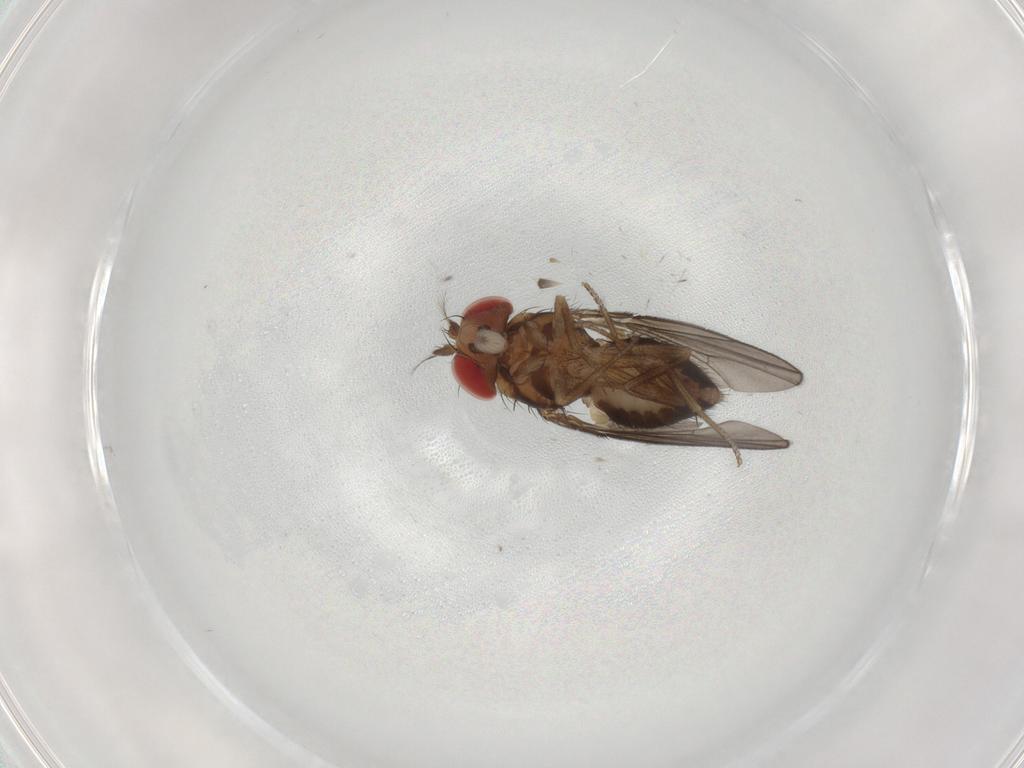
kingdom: Animalia
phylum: Arthropoda
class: Insecta
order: Diptera
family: Drosophilidae
